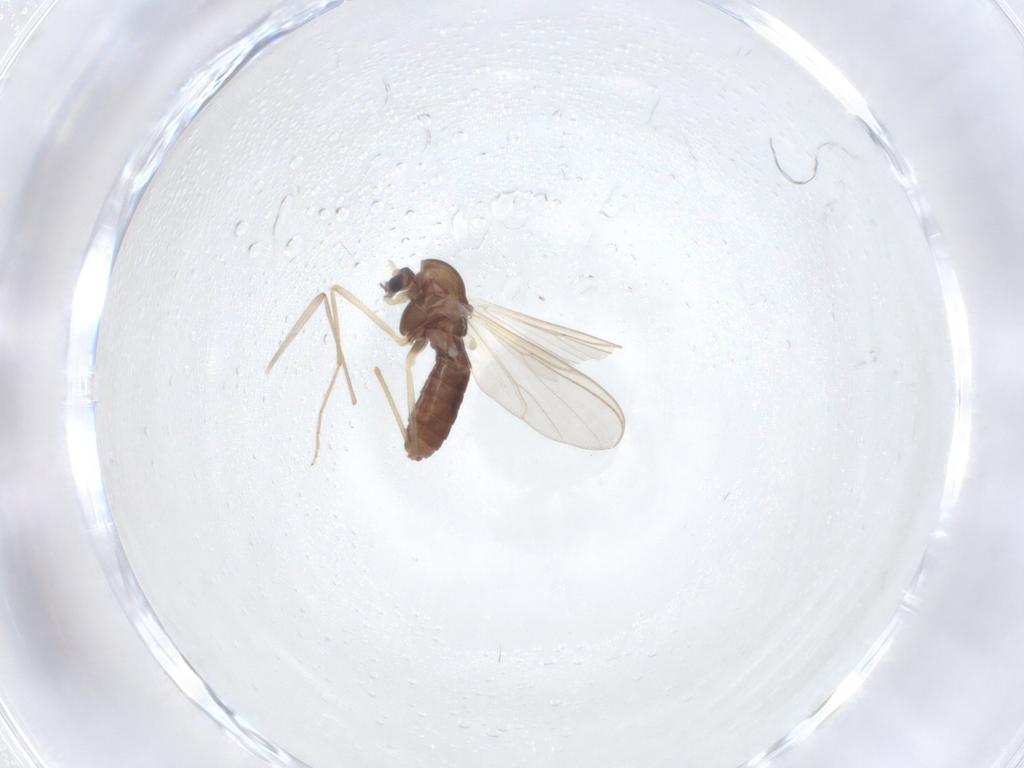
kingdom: Animalia
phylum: Arthropoda
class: Insecta
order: Diptera
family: Chironomidae
